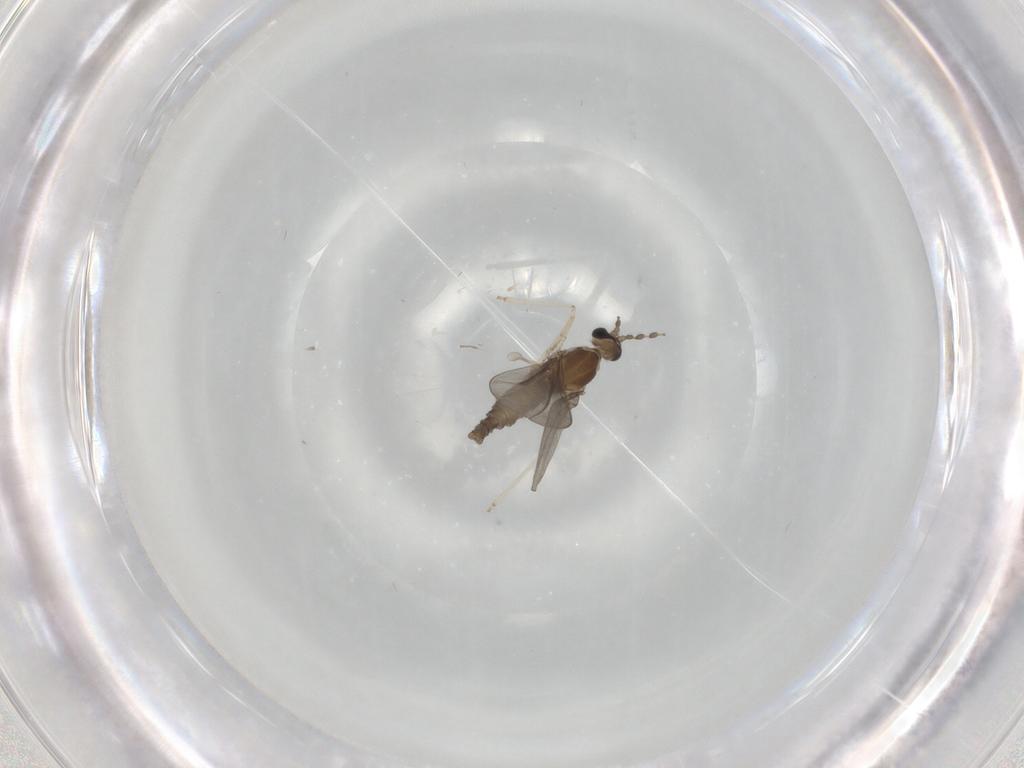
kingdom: Animalia
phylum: Arthropoda
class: Insecta
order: Diptera
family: Cecidomyiidae
